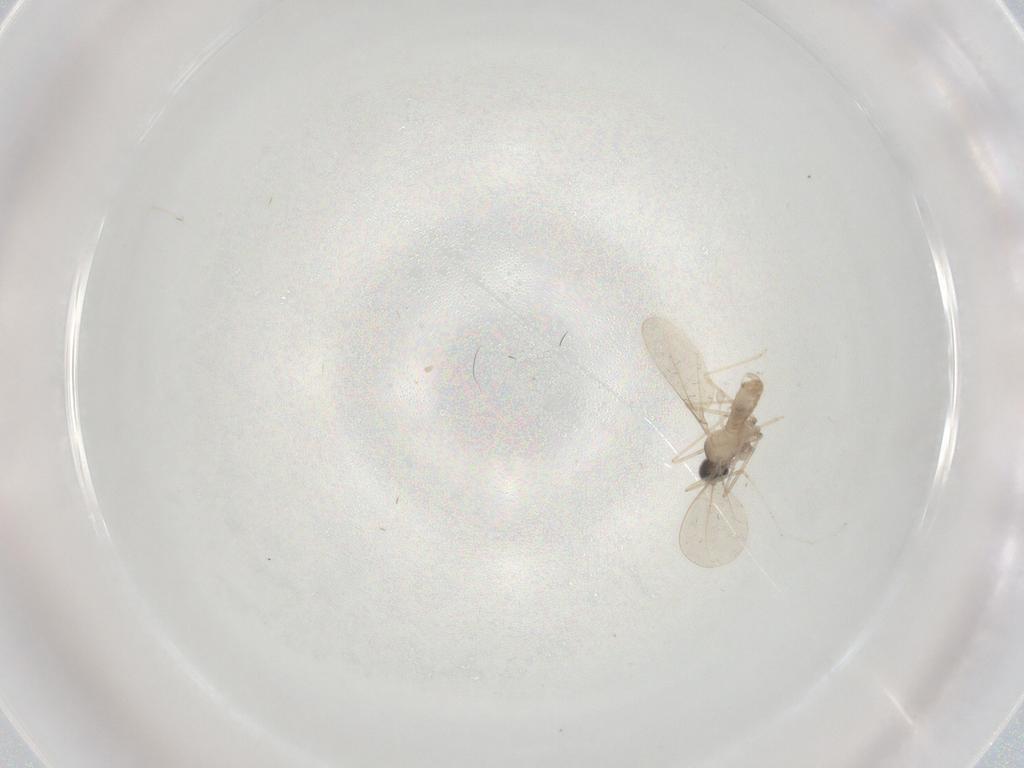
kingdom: Animalia
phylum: Arthropoda
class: Insecta
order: Diptera
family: Cecidomyiidae
